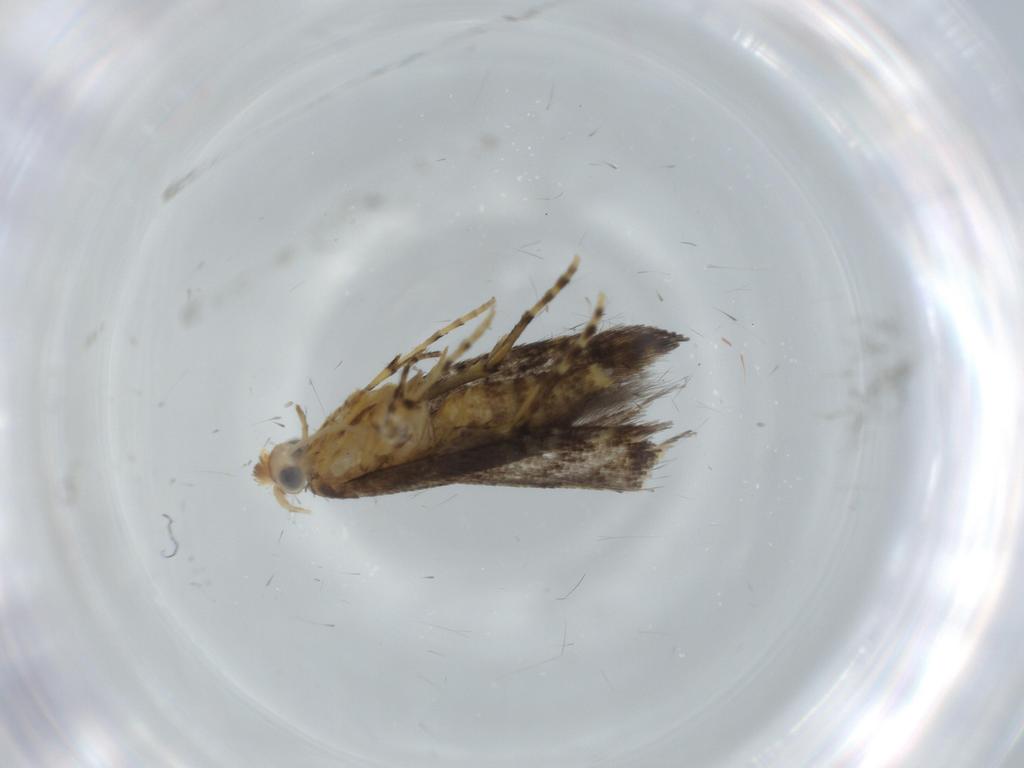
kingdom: Animalia
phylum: Arthropoda
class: Insecta
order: Lepidoptera
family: Argyresthiidae
